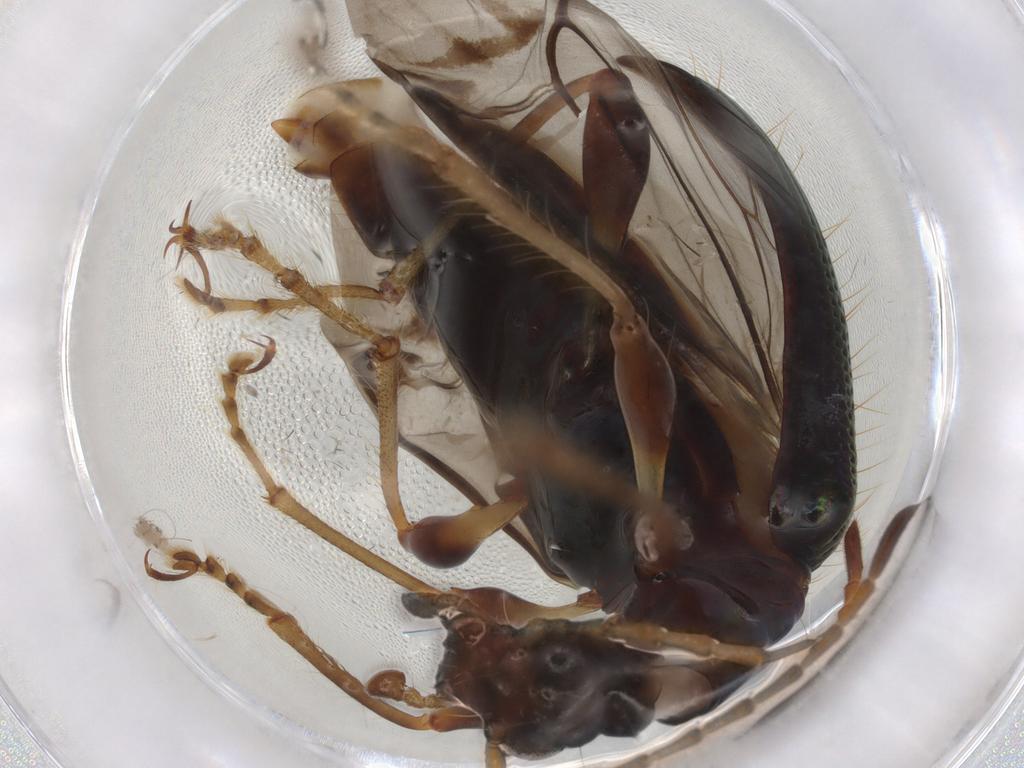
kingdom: Animalia
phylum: Arthropoda
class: Insecta
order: Coleoptera
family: Tenebrionidae
